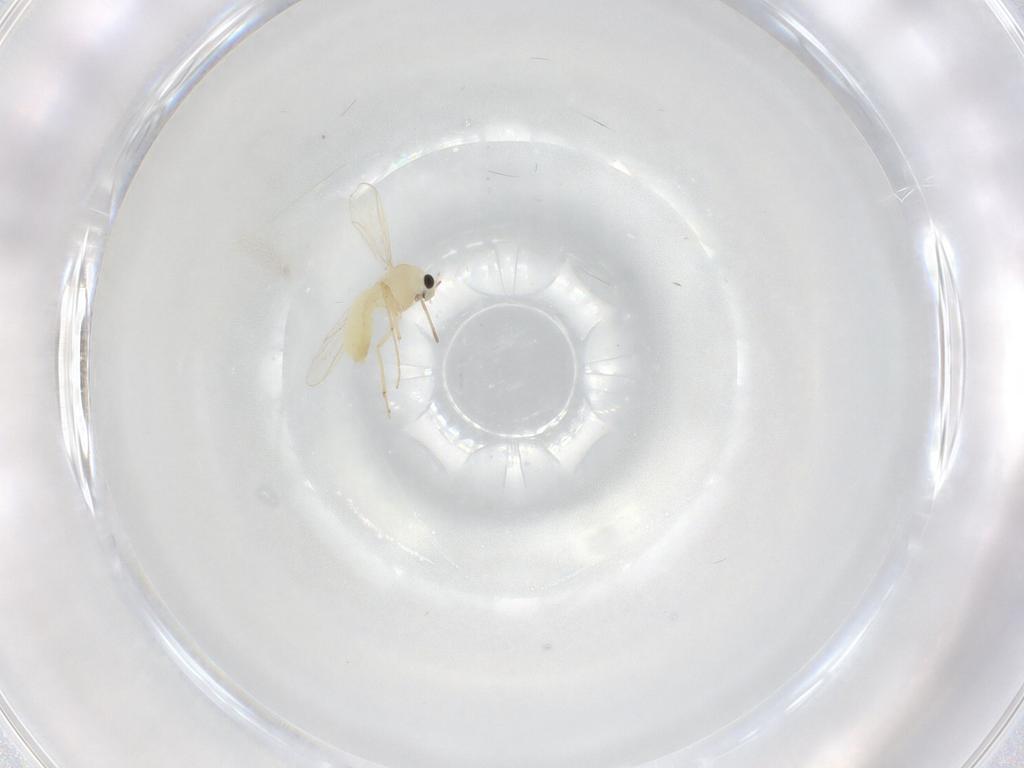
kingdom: Animalia
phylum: Arthropoda
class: Insecta
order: Diptera
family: Chironomidae
